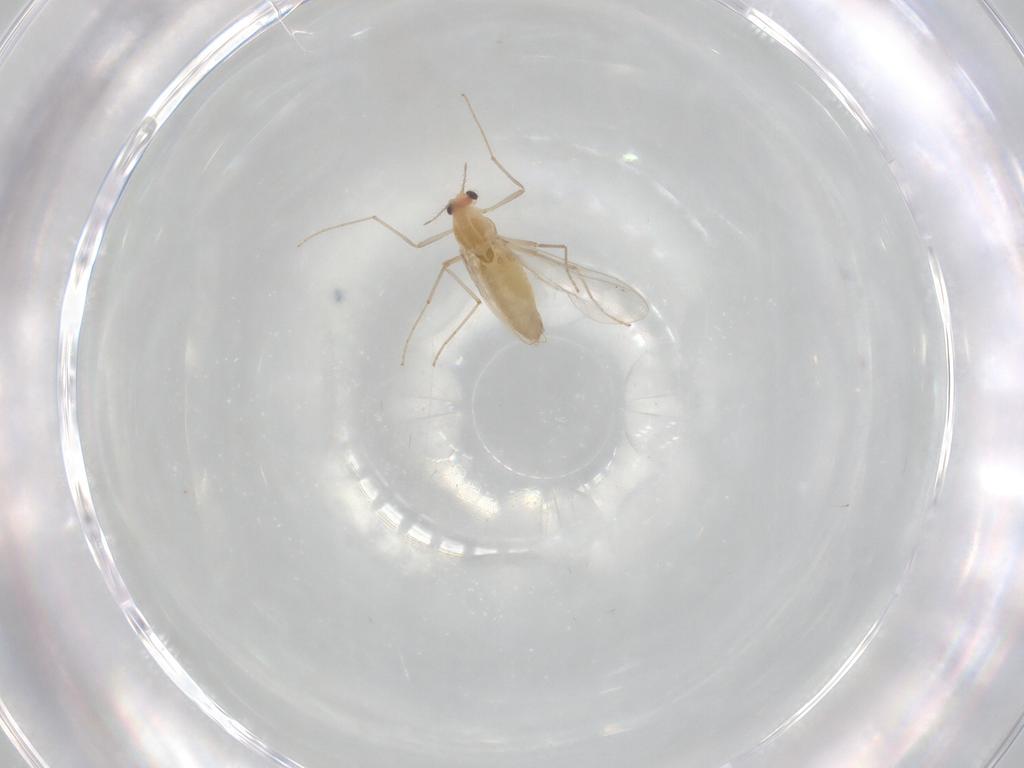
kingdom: Animalia
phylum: Arthropoda
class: Insecta
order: Diptera
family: Chironomidae
